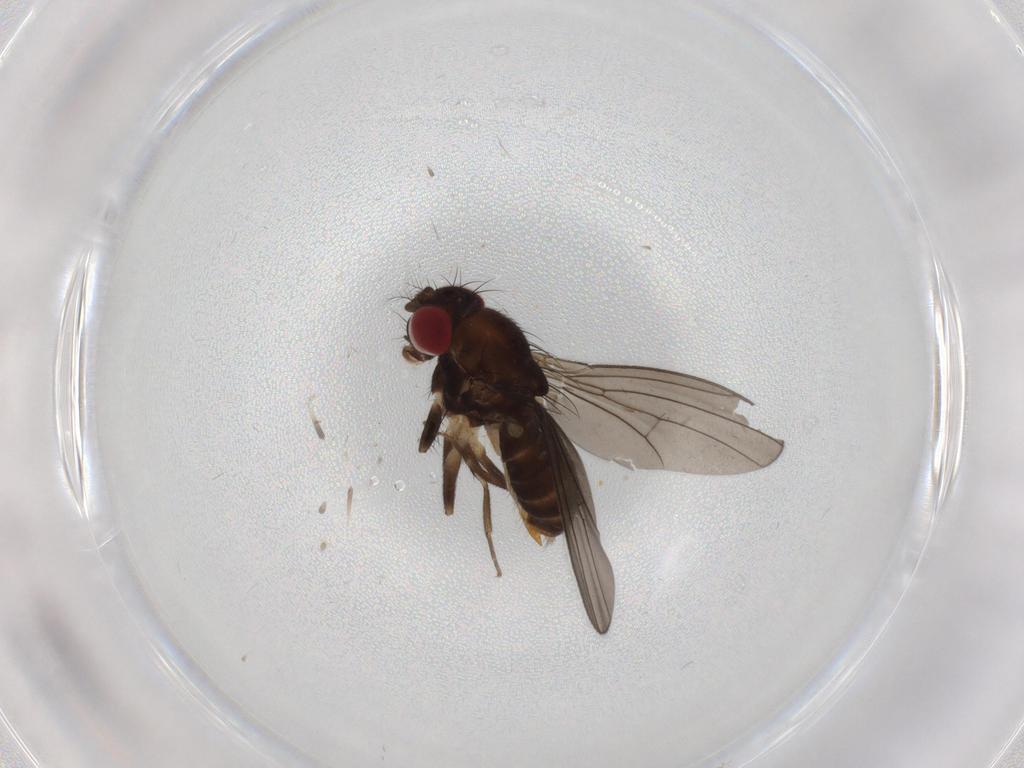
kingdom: Animalia
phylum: Arthropoda
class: Insecta
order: Diptera
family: Drosophilidae
